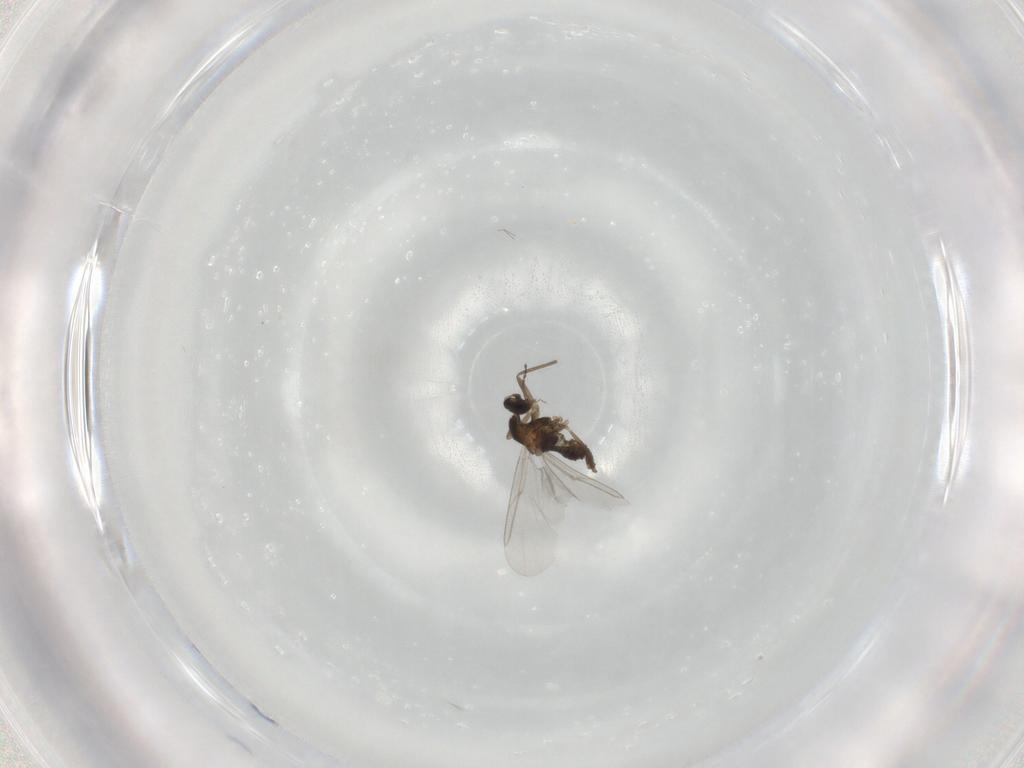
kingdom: Animalia
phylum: Arthropoda
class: Insecta
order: Diptera
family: Cecidomyiidae
